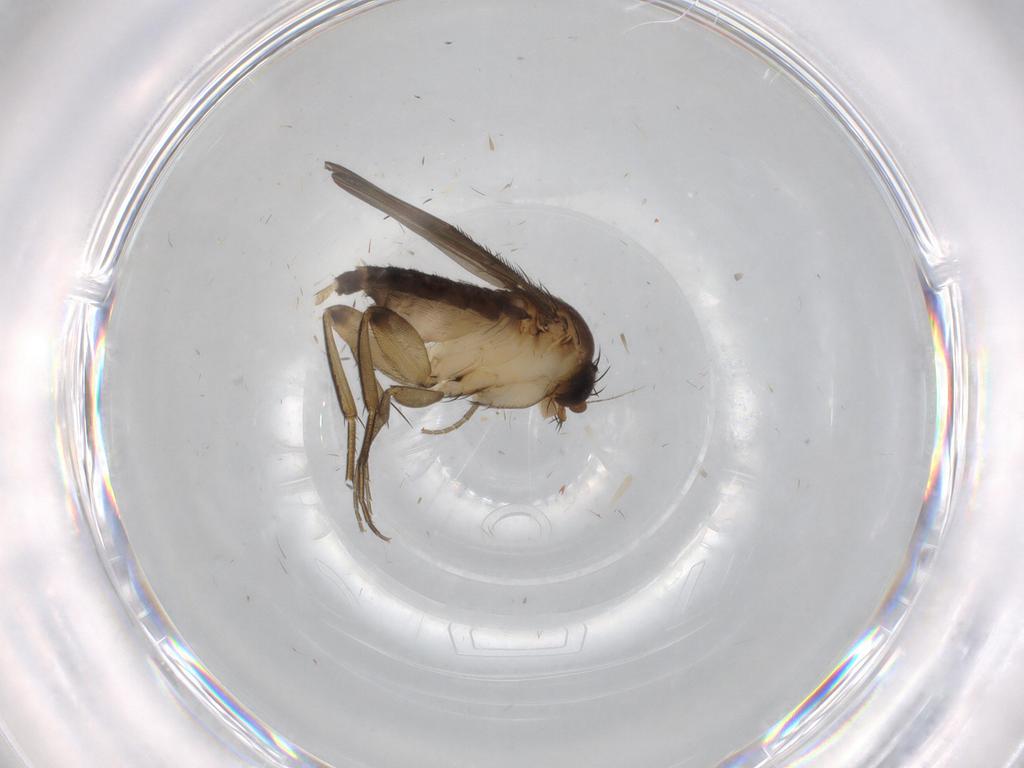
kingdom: Animalia
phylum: Arthropoda
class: Insecta
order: Diptera
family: Phoridae
